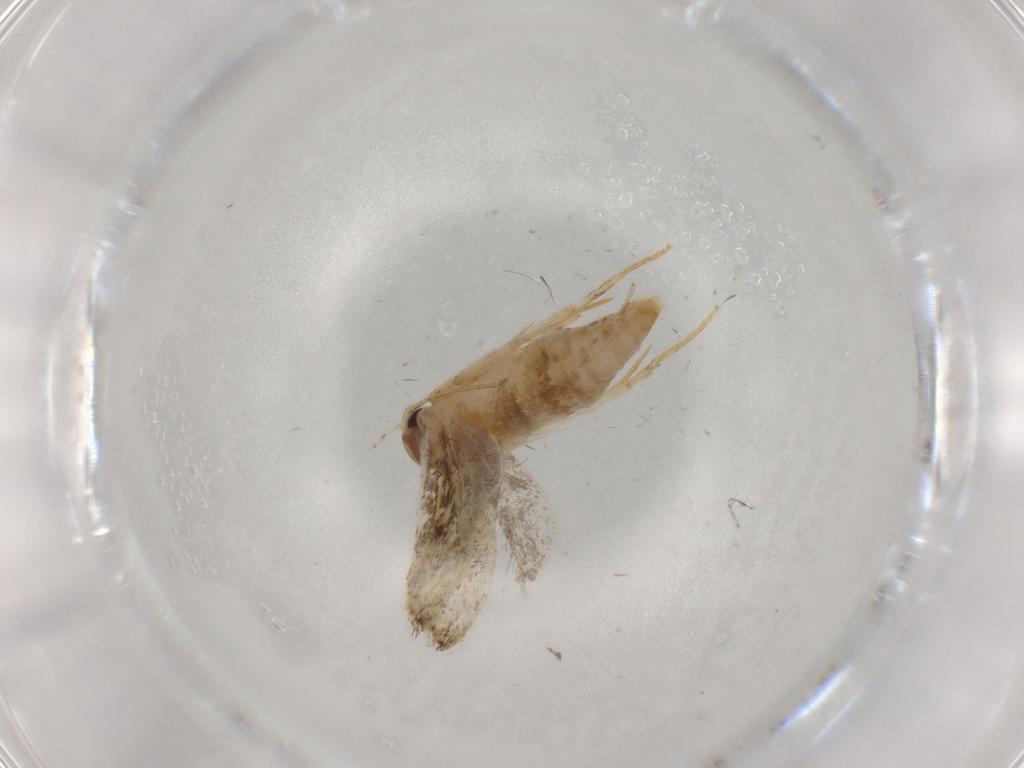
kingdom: Animalia
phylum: Arthropoda
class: Insecta
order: Lepidoptera
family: Gelechiidae
